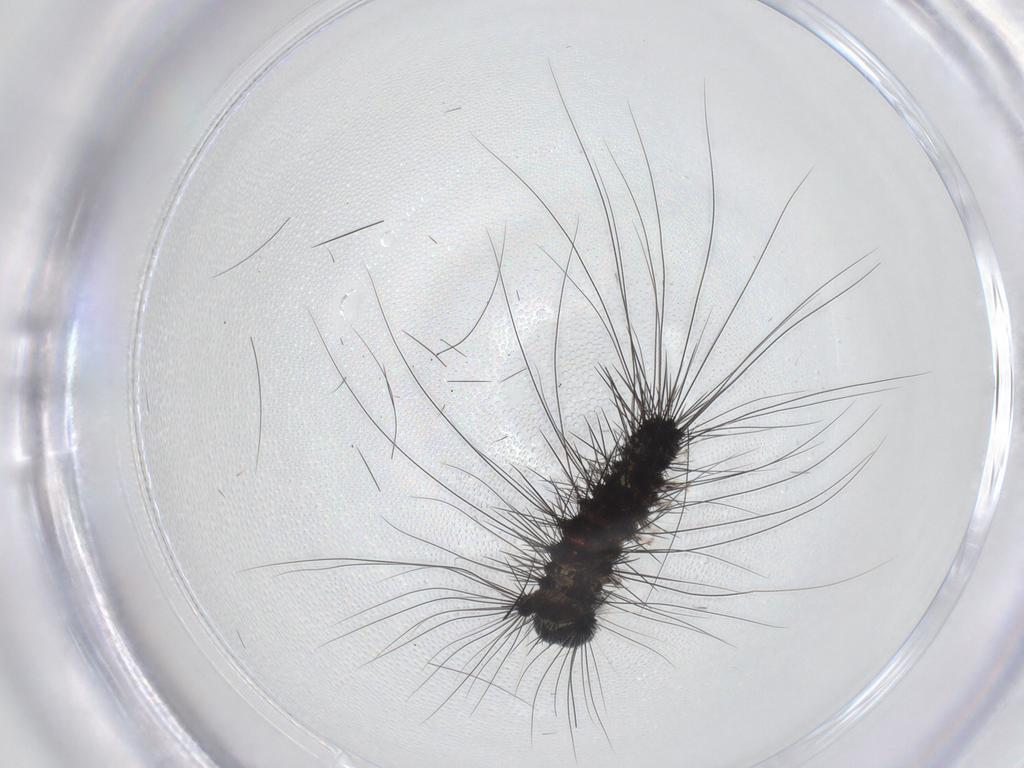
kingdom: Animalia
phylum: Arthropoda
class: Insecta
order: Lepidoptera
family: Erebidae
